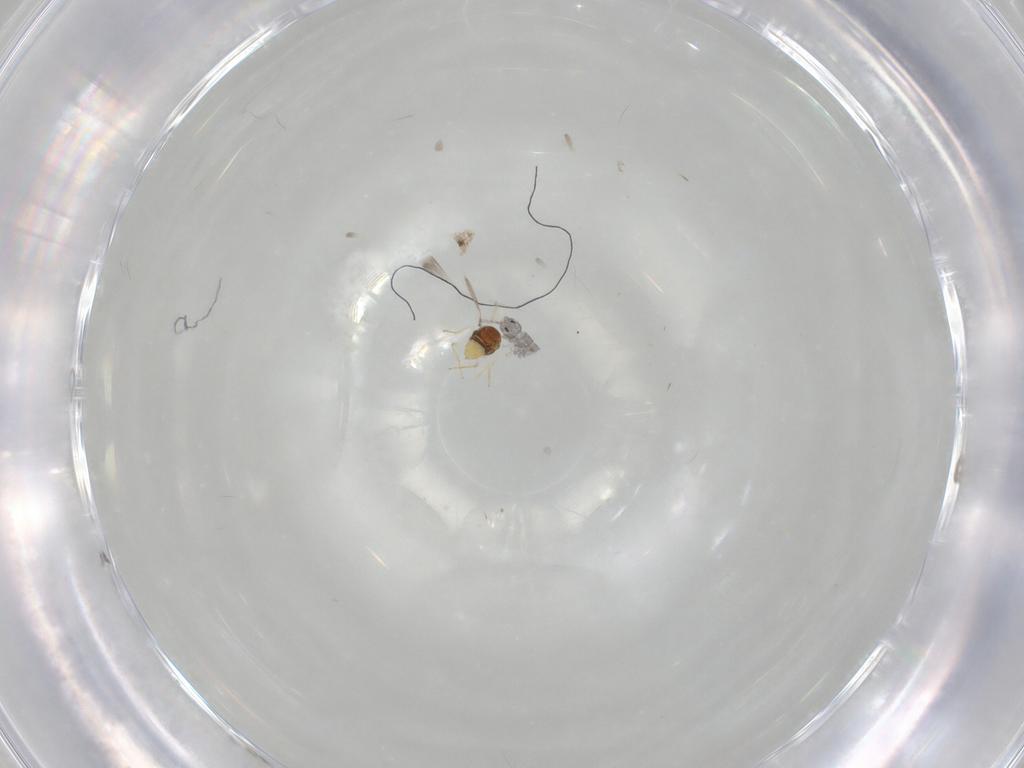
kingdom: Animalia
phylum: Arthropoda
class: Insecta
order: Hymenoptera
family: Aphelinidae
